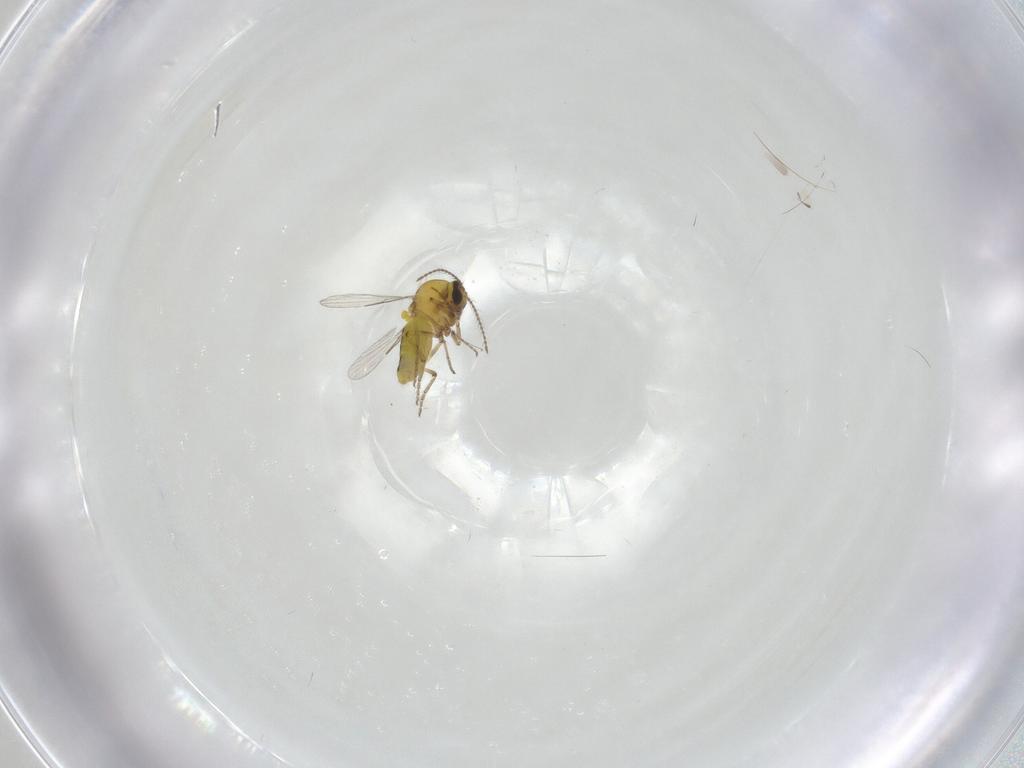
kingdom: Animalia
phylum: Arthropoda
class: Insecta
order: Diptera
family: Ceratopogonidae
